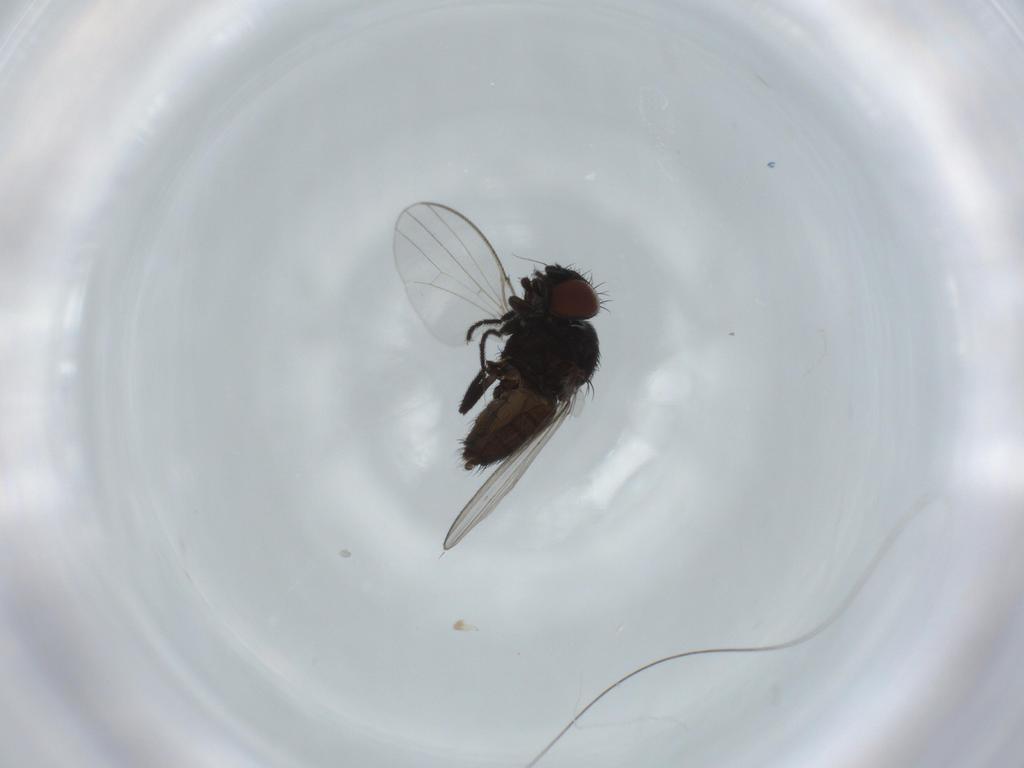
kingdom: Animalia
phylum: Arthropoda
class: Insecta
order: Diptera
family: Milichiidae
